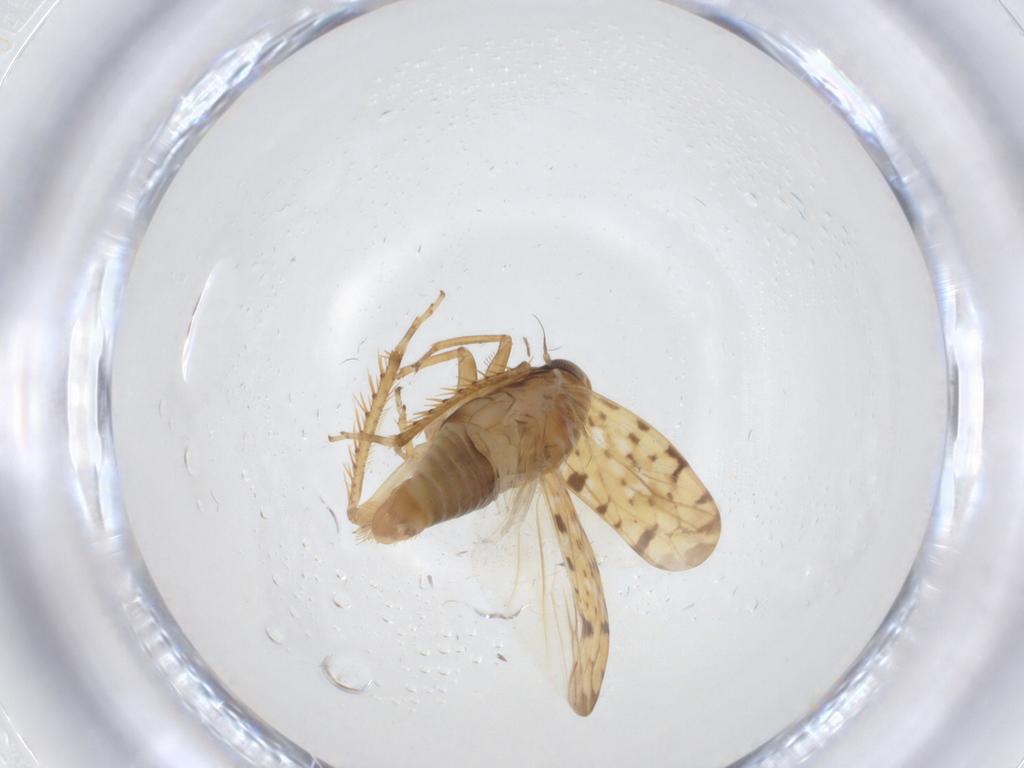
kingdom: Animalia
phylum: Arthropoda
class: Insecta
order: Hemiptera
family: Cicadellidae
